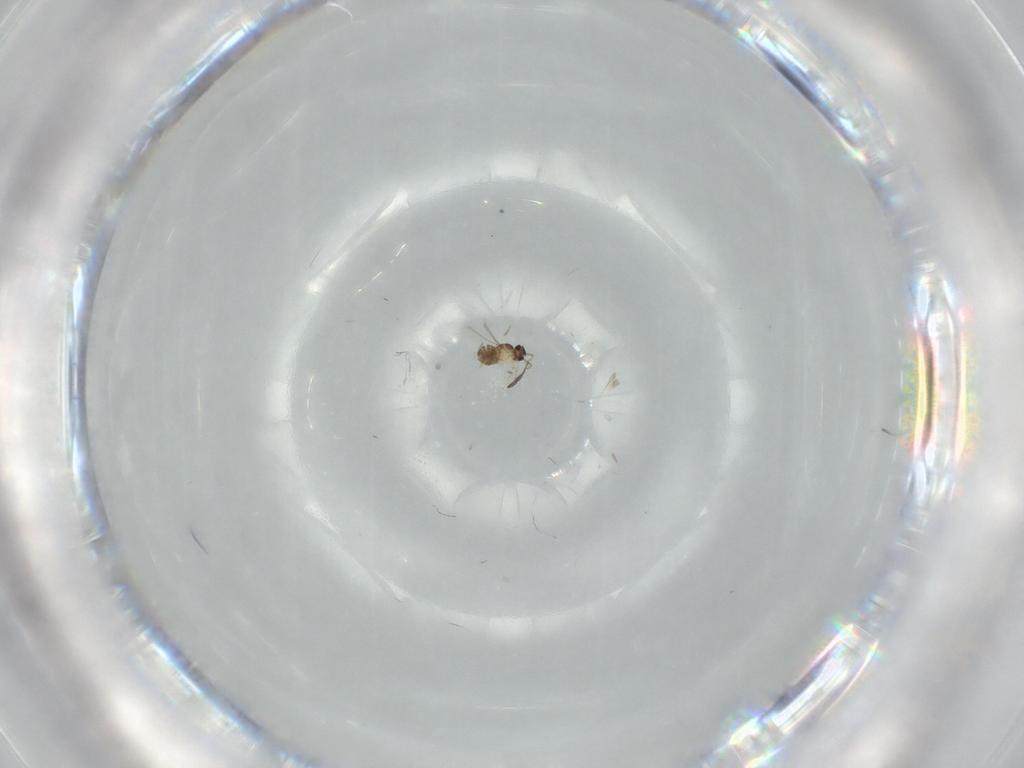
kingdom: Animalia
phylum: Arthropoda
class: Insecta
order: Hymenoptera
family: Mymaridae
